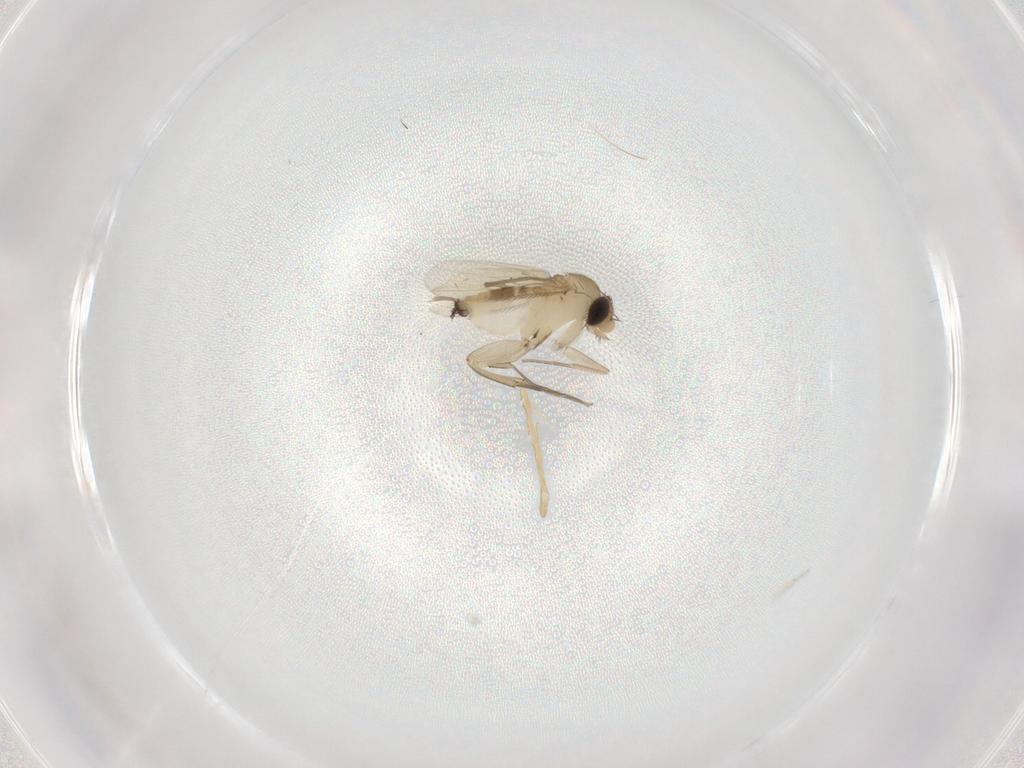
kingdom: Animalia
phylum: Arthropoda
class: Insecta
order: Diptera
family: Phoridae
